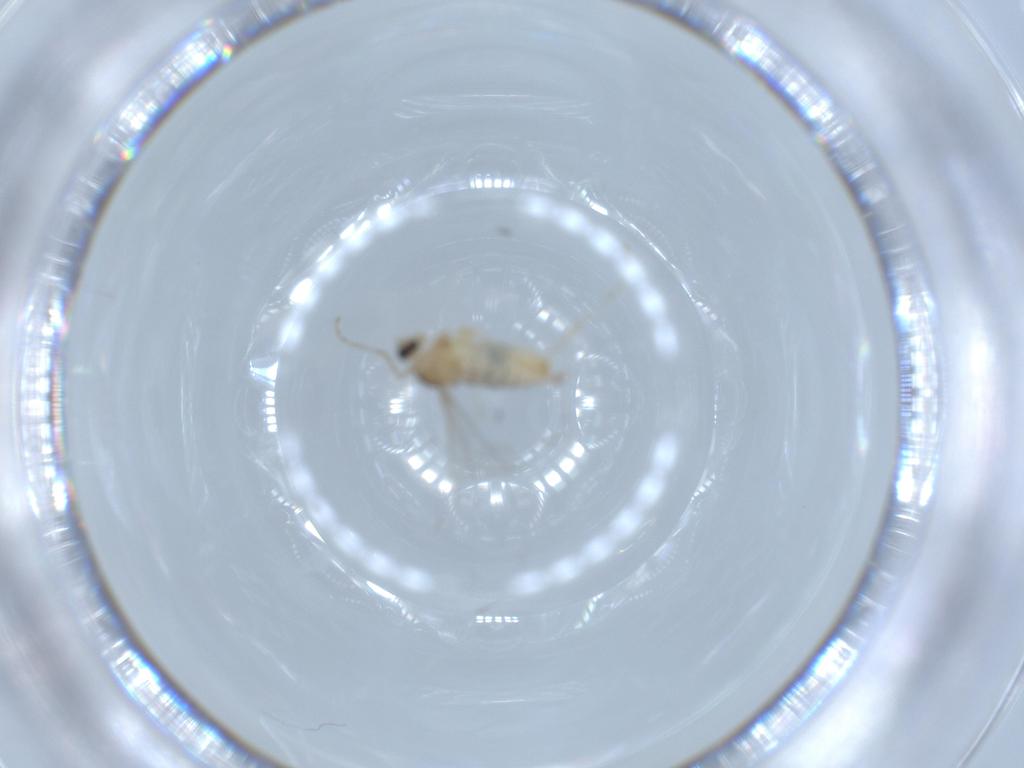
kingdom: Animalia
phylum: Arthropoda
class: Insecta
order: Diptera
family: Cecidomyiidae
